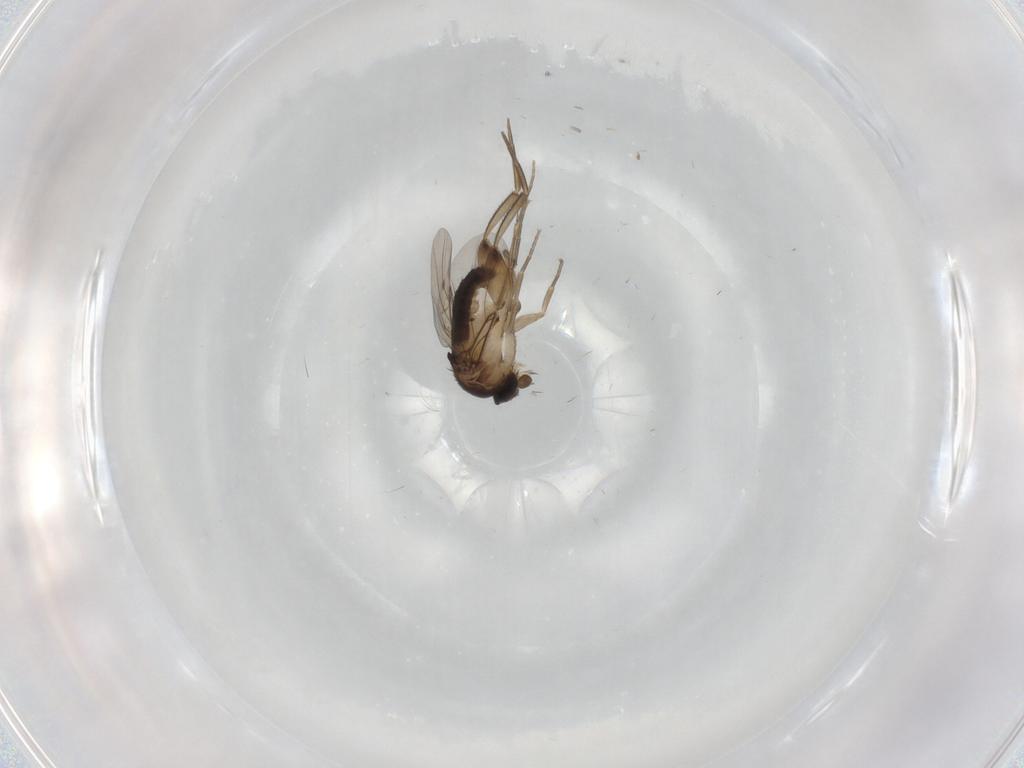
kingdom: Animalia
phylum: Arthropoda
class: Insecta
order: Diptera
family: Phoridae
